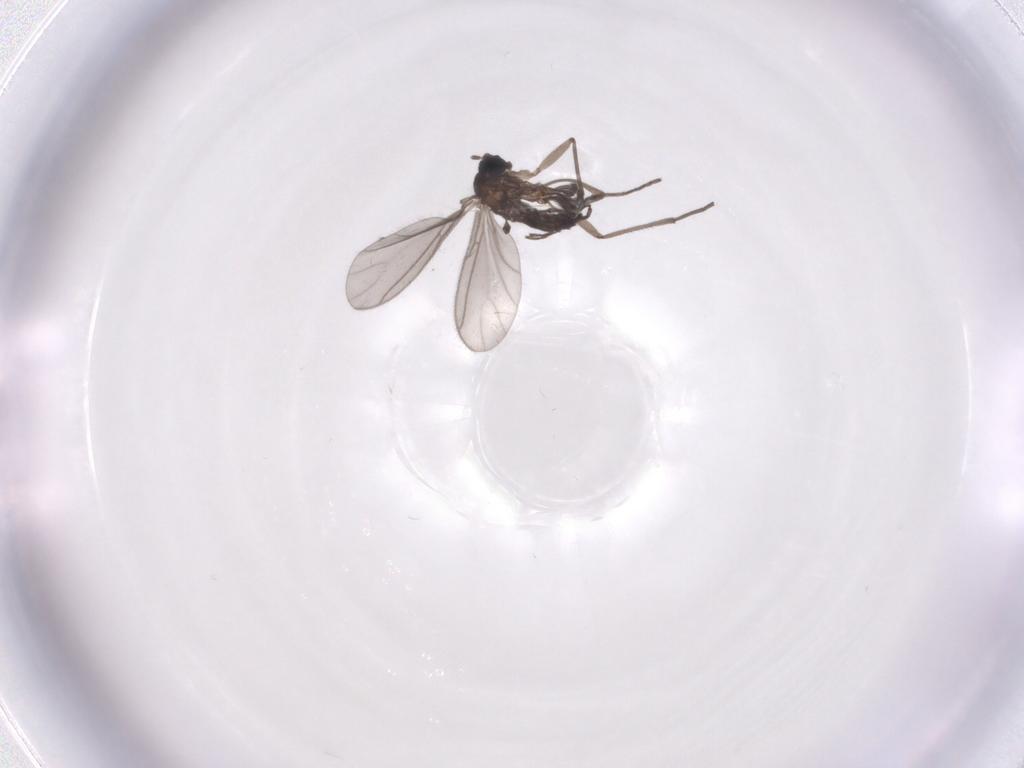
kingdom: Animalia
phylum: Arthropoda
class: Insecta
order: Diptera
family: Sciaridae
